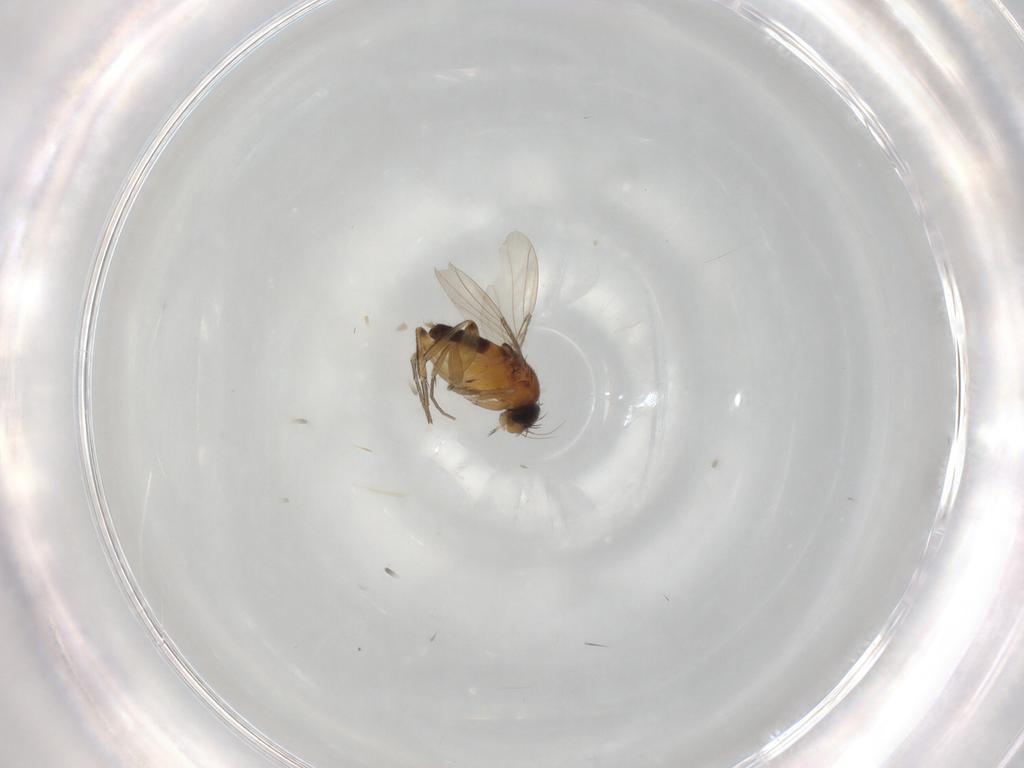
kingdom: Animalia
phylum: Arthropoda
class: Insecta
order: Diptera
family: Phoridae
